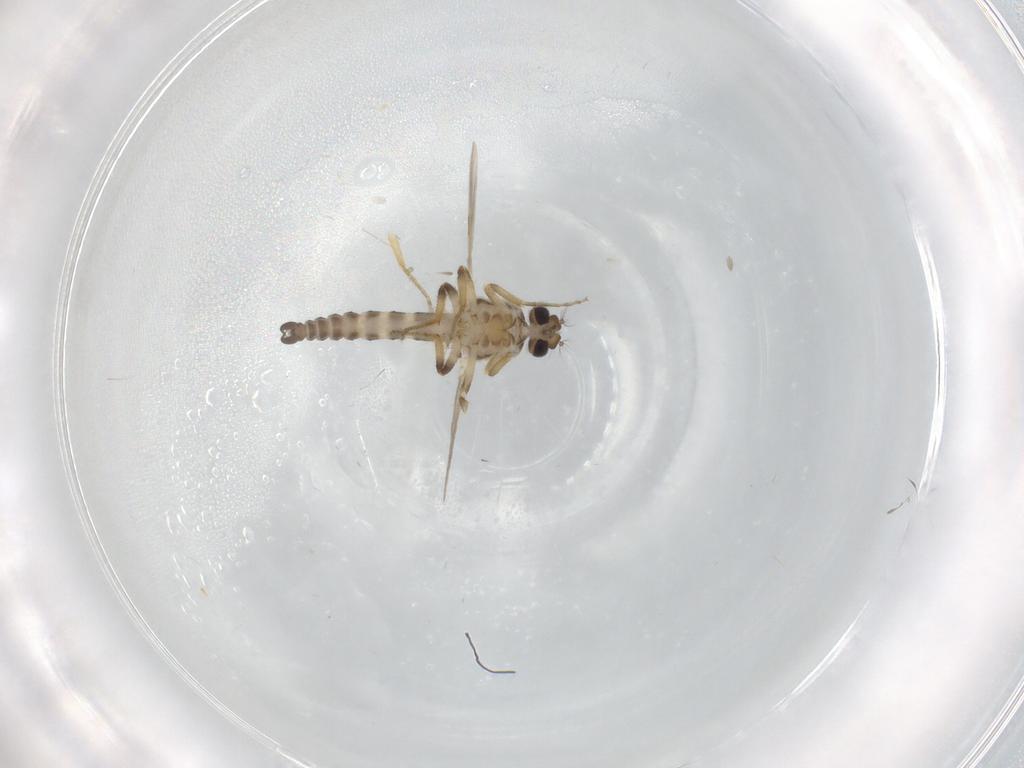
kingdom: Animalia
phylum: Arthropoda
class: Insecta
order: Diptera
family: Ceratopogonidae
